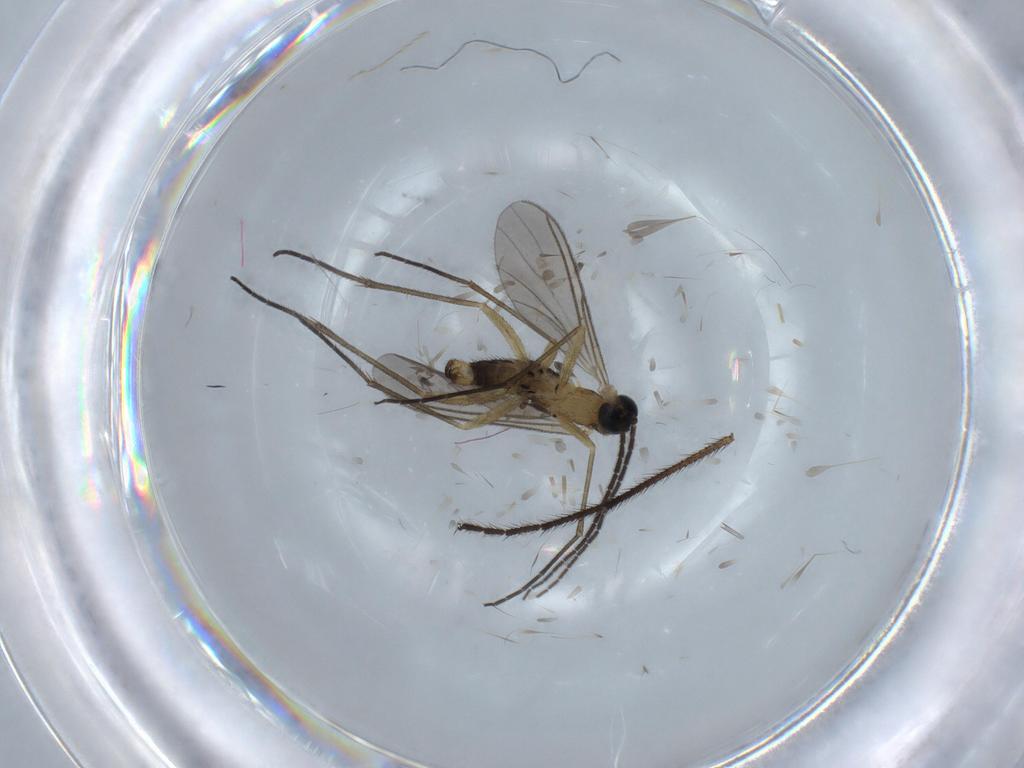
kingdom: Animalia
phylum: Arthropoda
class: Insecta
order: Diptera
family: Limoniidae
